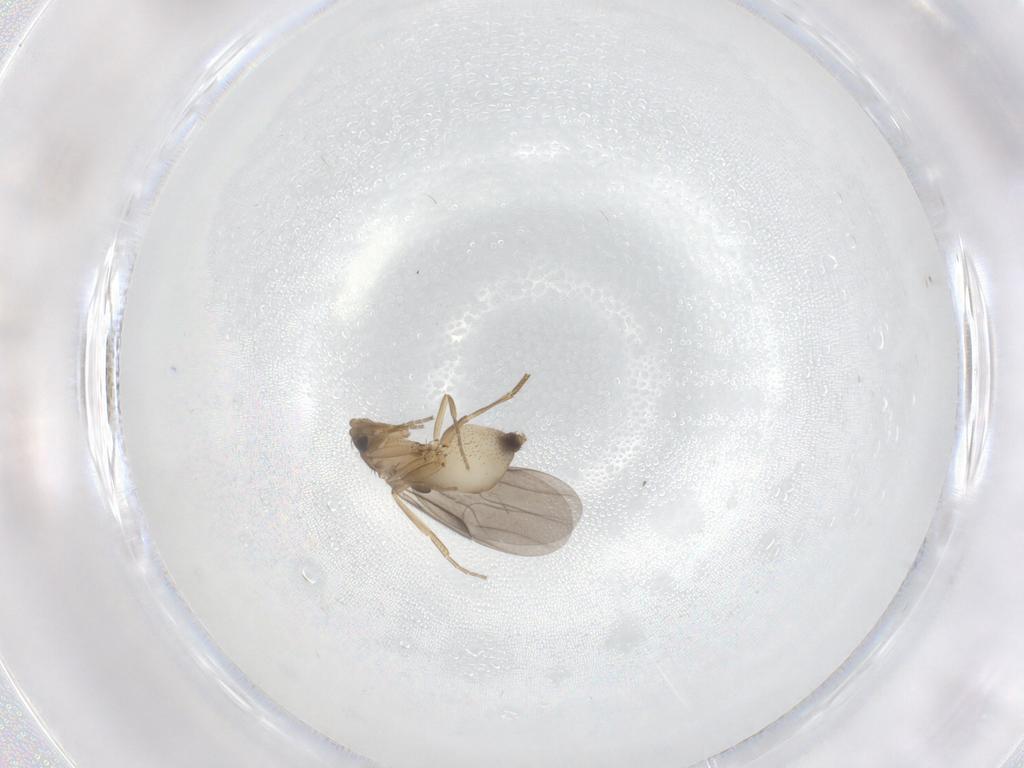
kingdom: Animalia
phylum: Arthropoda
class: Insecta
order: Diptera
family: Phoridae
